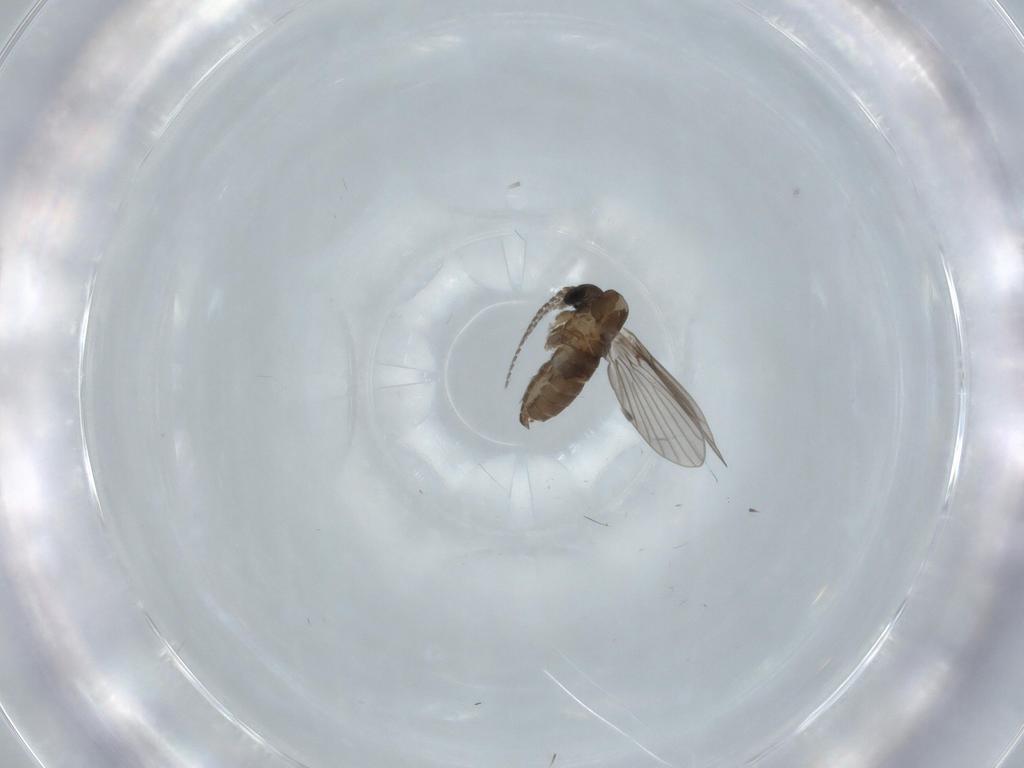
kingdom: Animalia
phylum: Arthropoda
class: Insecta
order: Diptera
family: Psychodidae
